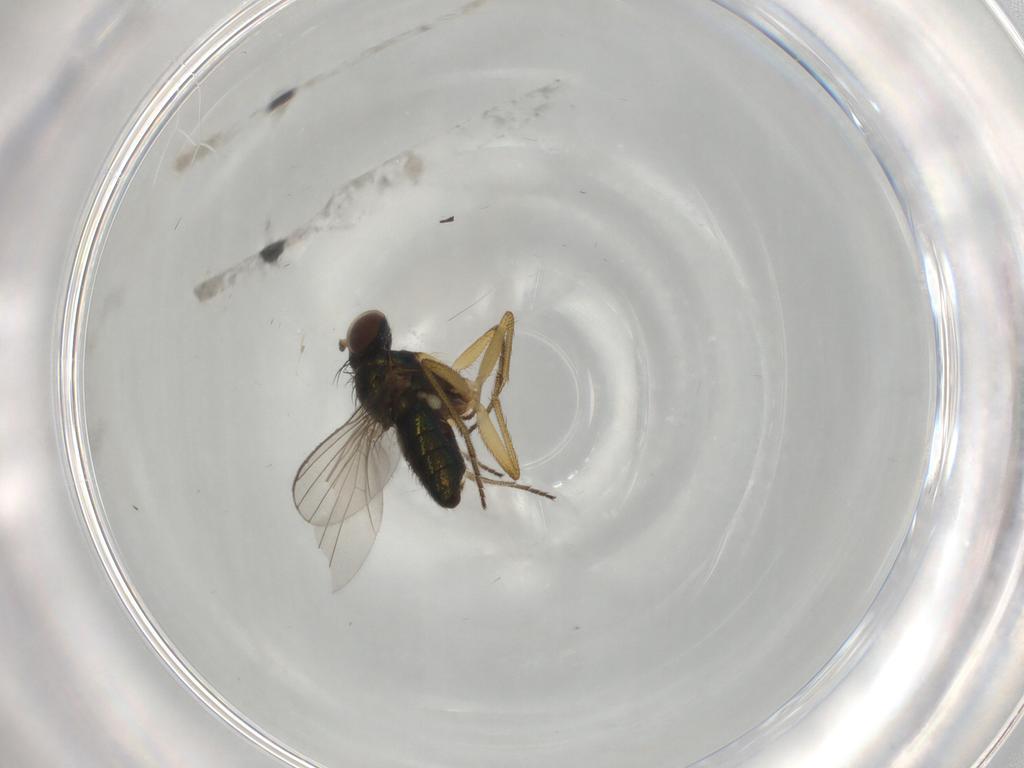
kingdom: Animalia
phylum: Arthropoda
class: Insecta
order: Diptera
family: Dolichopodidae
